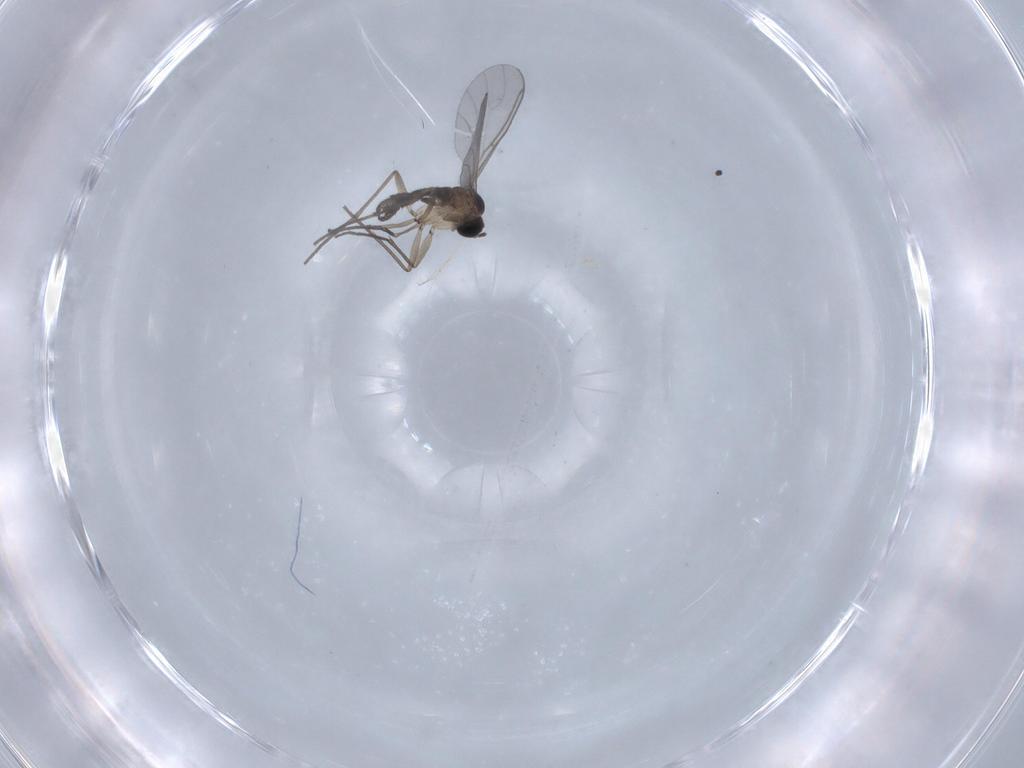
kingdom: Animalia
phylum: Arthropoda
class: Insecta
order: Diptera
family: Sciaridae
